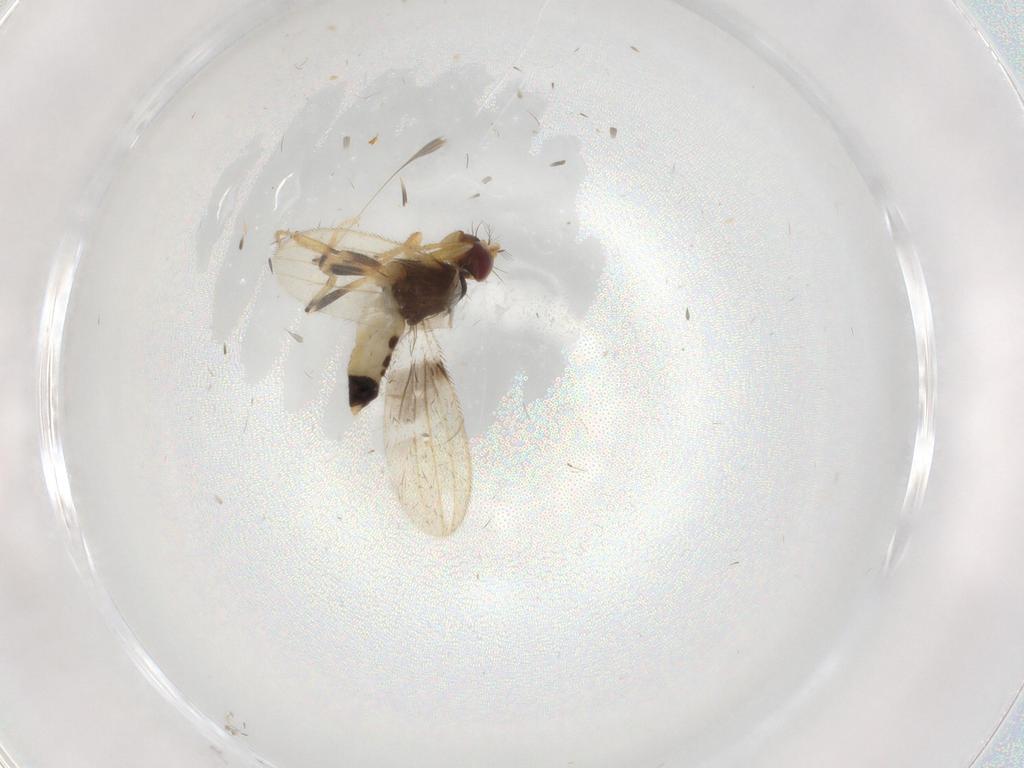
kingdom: Animalia
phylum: Arthropoda
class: Insecta
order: Diptera
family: Periscelididae
